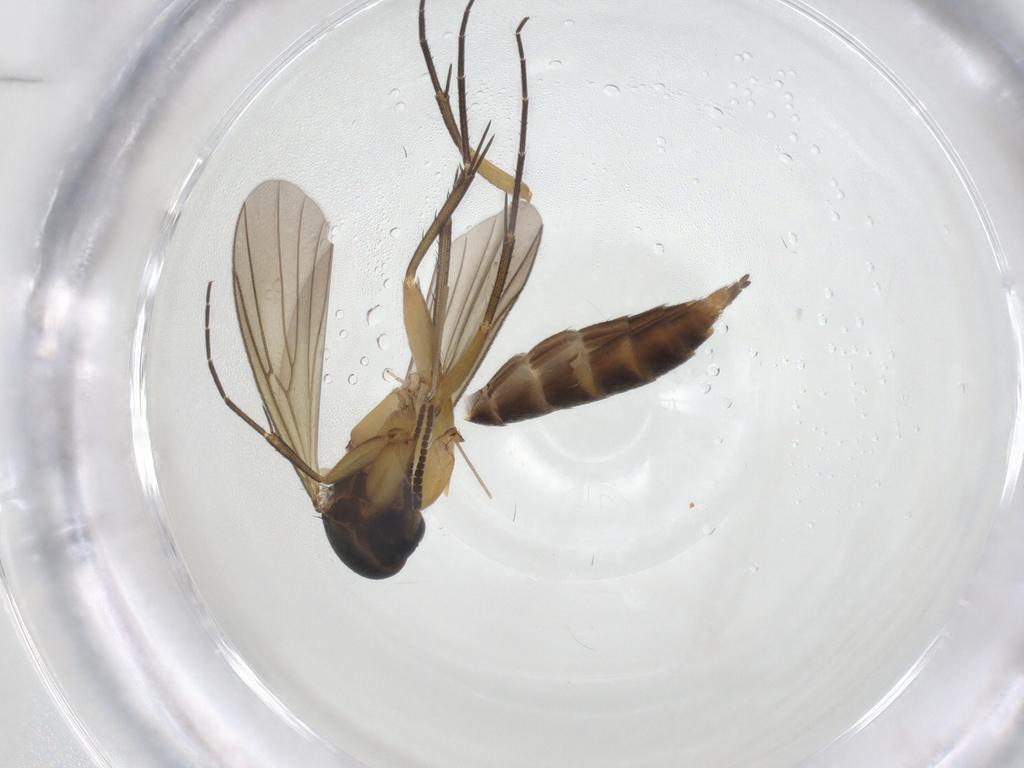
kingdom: Animalia
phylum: Arthropoda
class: Insecta
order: Diptera
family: Mycetophilidae
